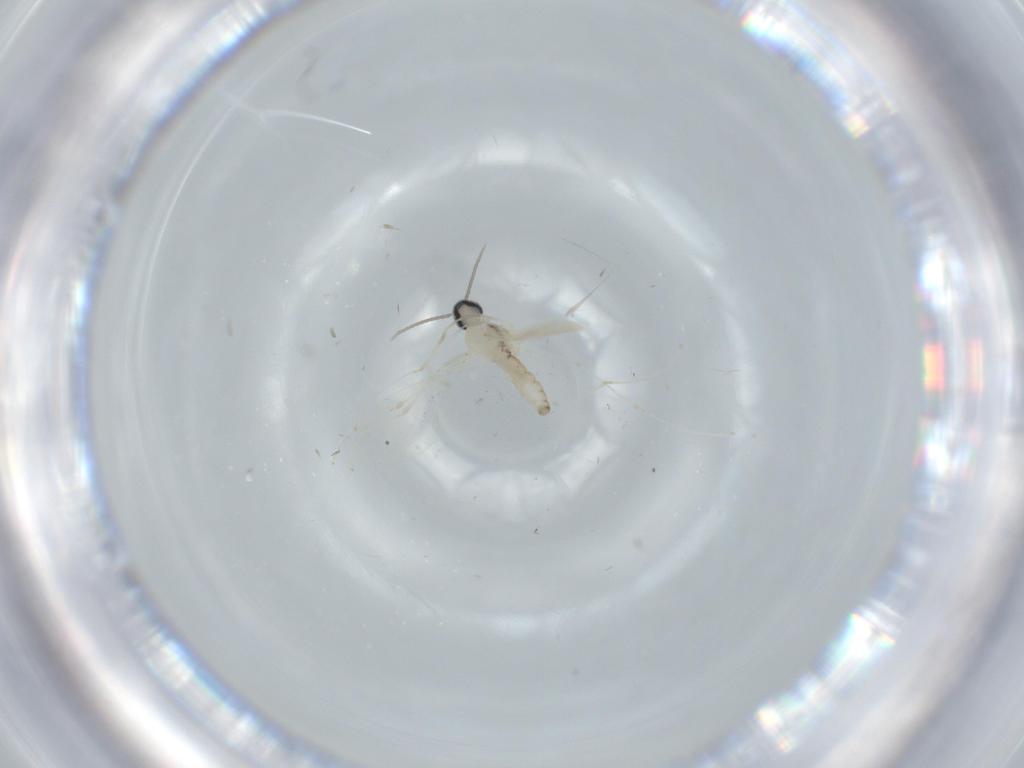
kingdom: Animalia
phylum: Arthropoda
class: Insecta
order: Diptera
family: Cecidomyiidae
